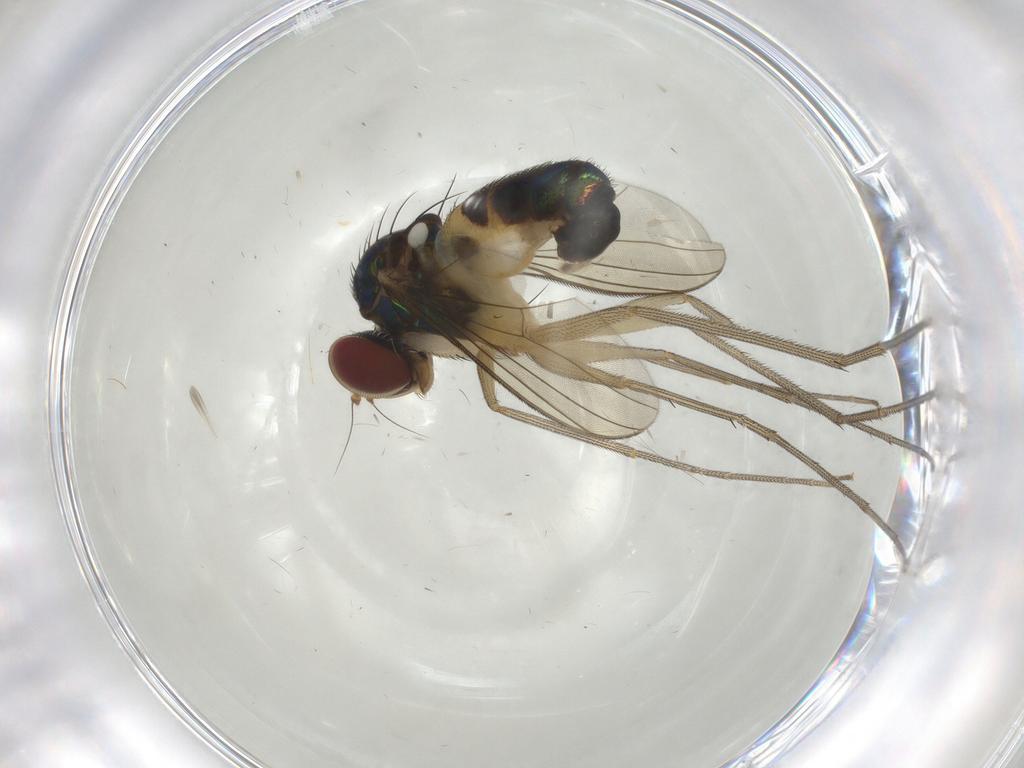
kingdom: Animalia
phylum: Arthropoda
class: Insecta
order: Diptera
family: Dolichopodidae
